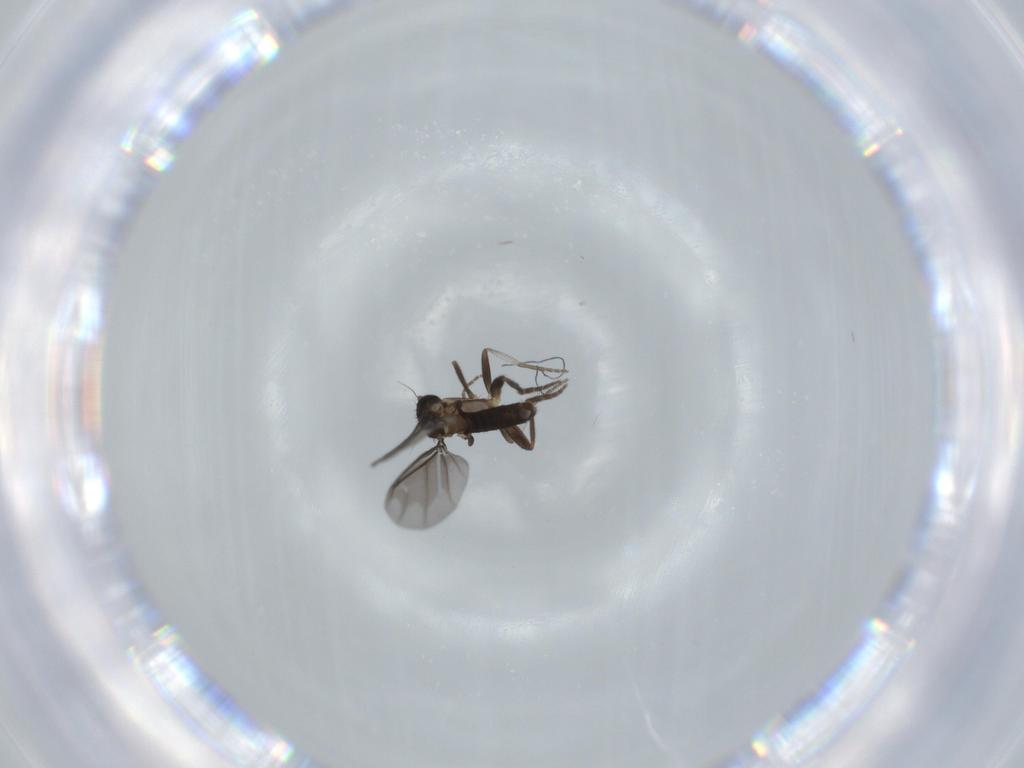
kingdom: Animalia
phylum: Arthropoda
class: Insecta
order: Diptera
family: Phoridae
